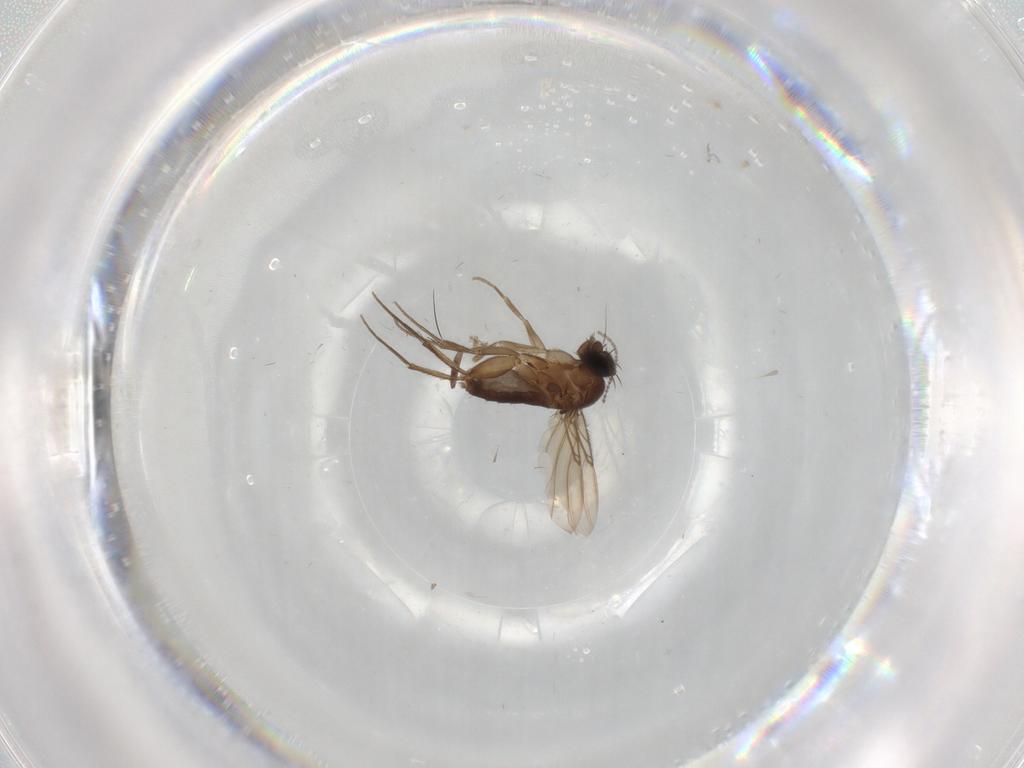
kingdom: Animalia
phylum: Arthropoda
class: Insecta
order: Diptera
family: Phoridae
